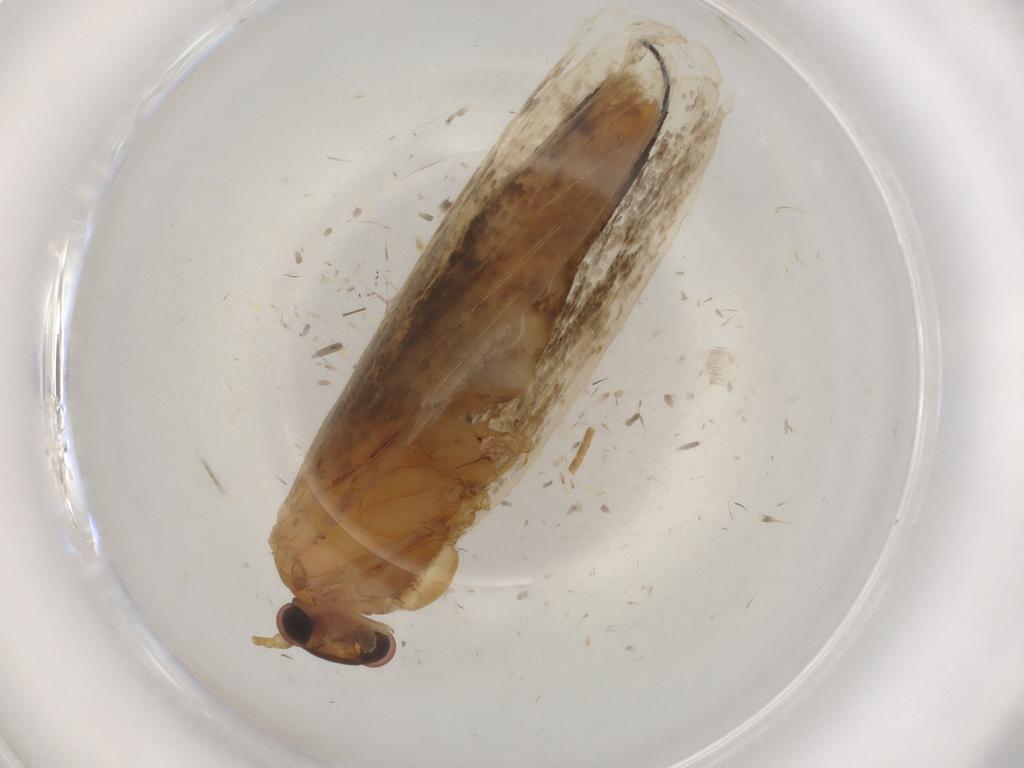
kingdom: Animalia
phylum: Arthropoda
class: Insecta
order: Lepidoptera
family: Nepticulidae
